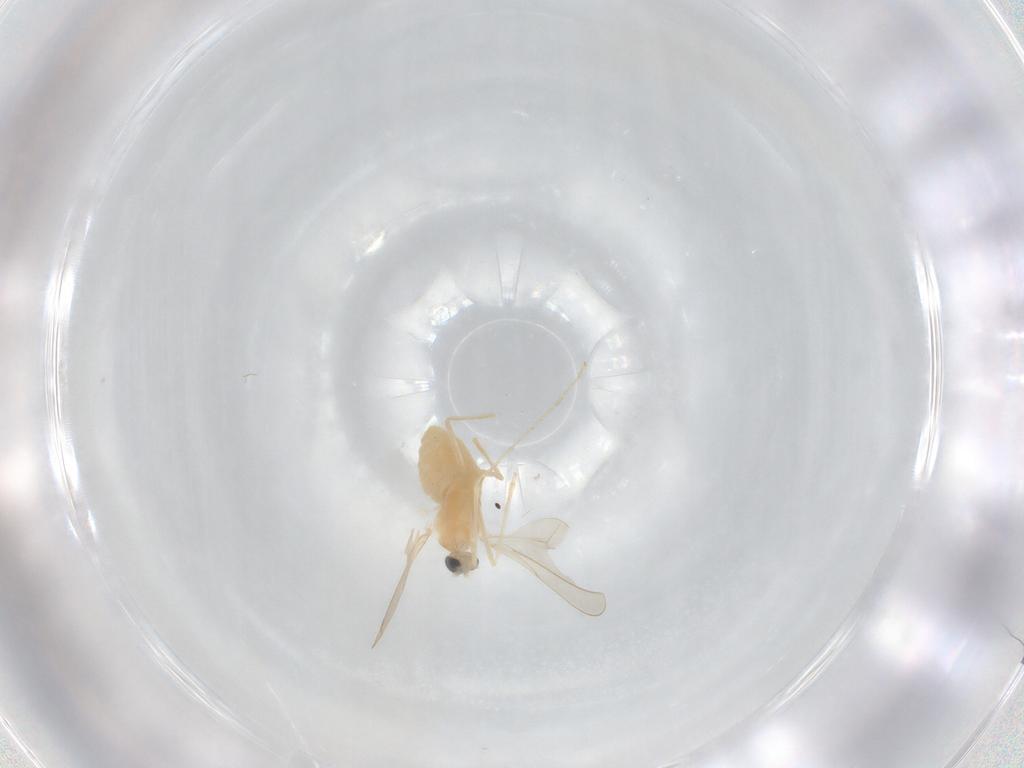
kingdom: Animalia
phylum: Arthropoda
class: Insecta
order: Diptera
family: Cecidomyiidae
